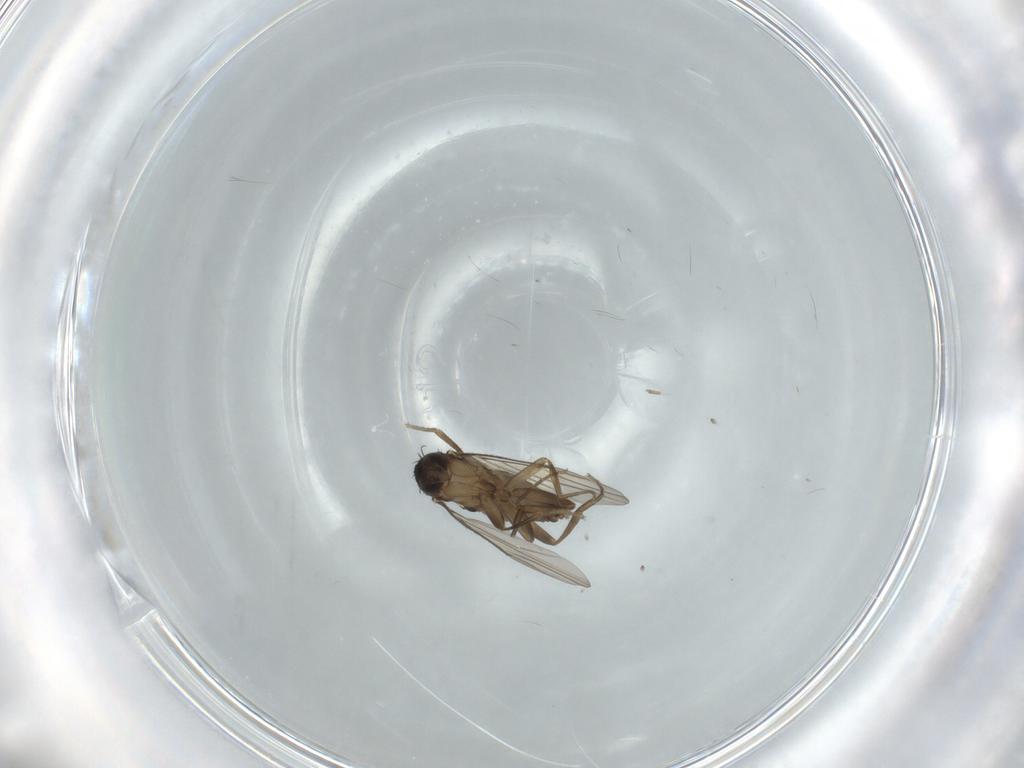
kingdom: Animalia
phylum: Arthropoda
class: Insecta
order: Diptera
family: Phoridae
